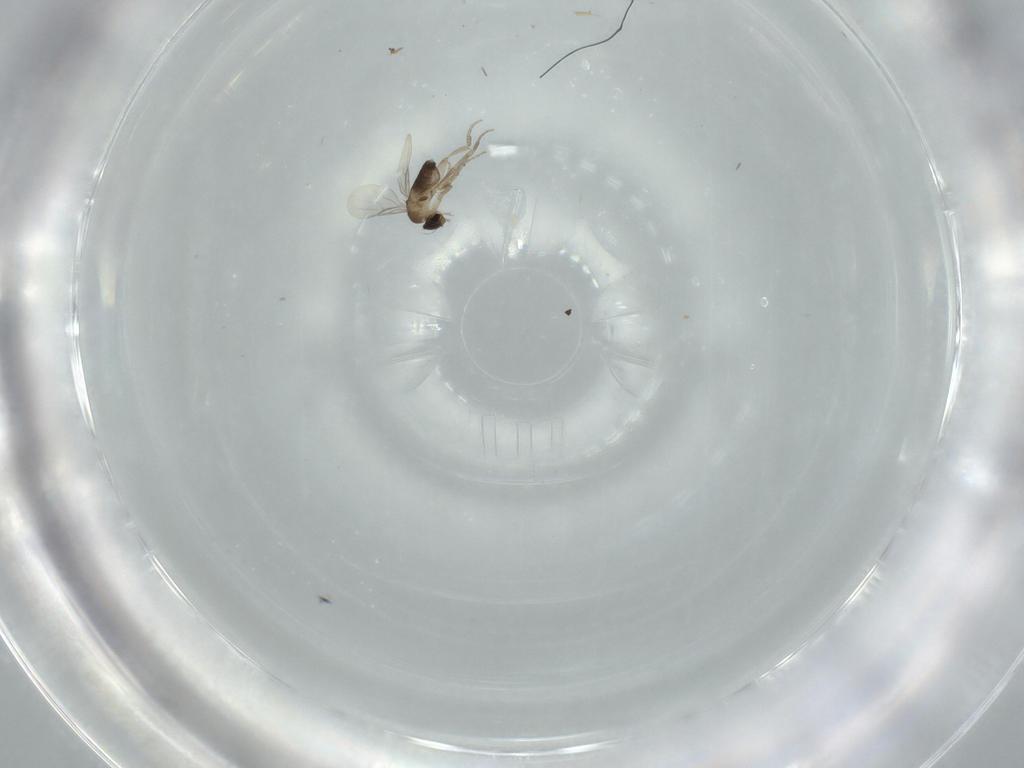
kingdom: Animalia
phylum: Arthropoda
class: Insecta
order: Diptera
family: Phoridae
